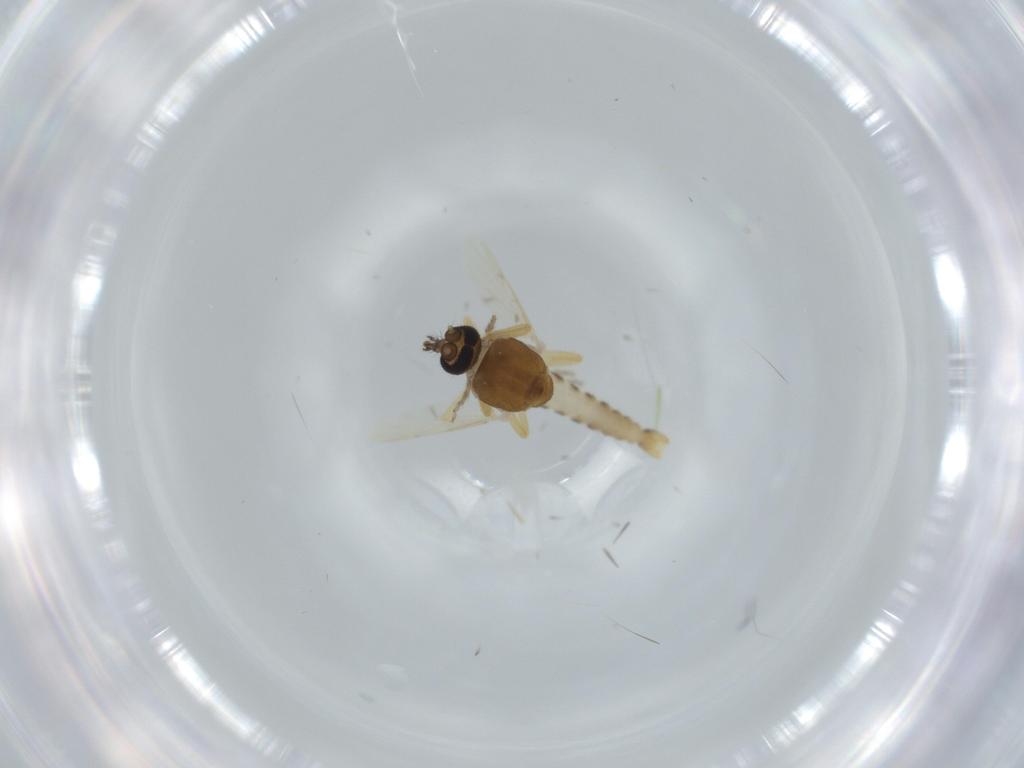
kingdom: Animalia
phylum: Arthropoda
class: Insecta
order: Diptera
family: Ceratopogonidae
